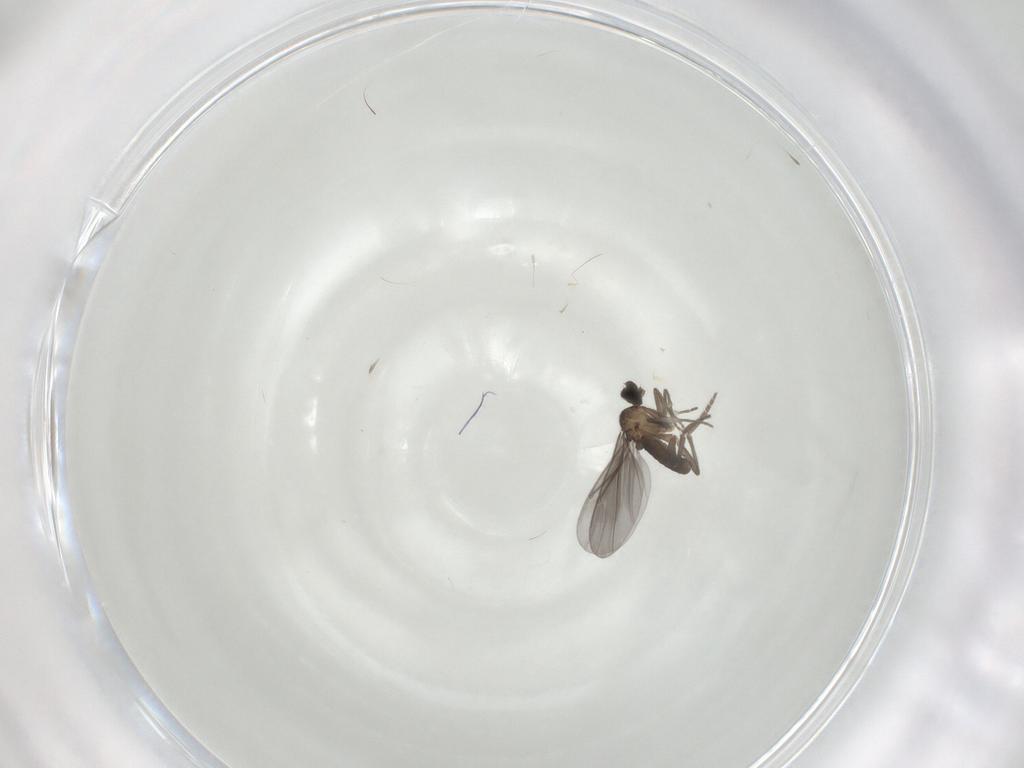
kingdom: Animalia
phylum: Arthropoda
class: Insecta
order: Diptera
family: Phoridae
